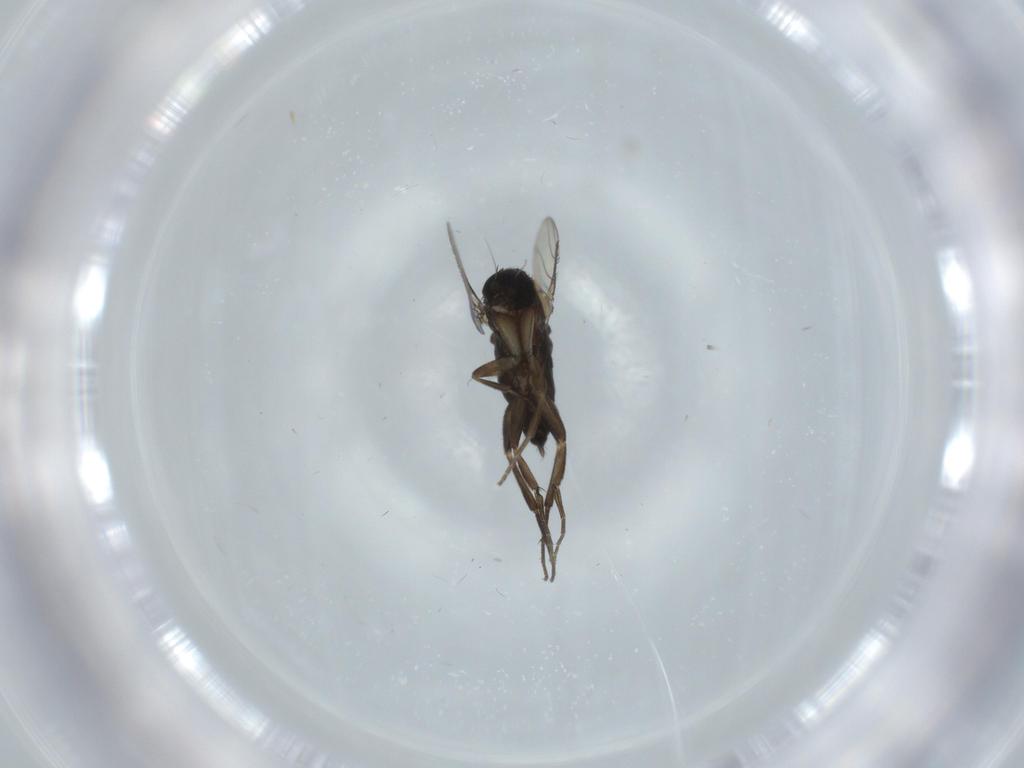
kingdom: Animalia
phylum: Arthropoda
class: Insecta
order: Diptera
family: Phoridae
